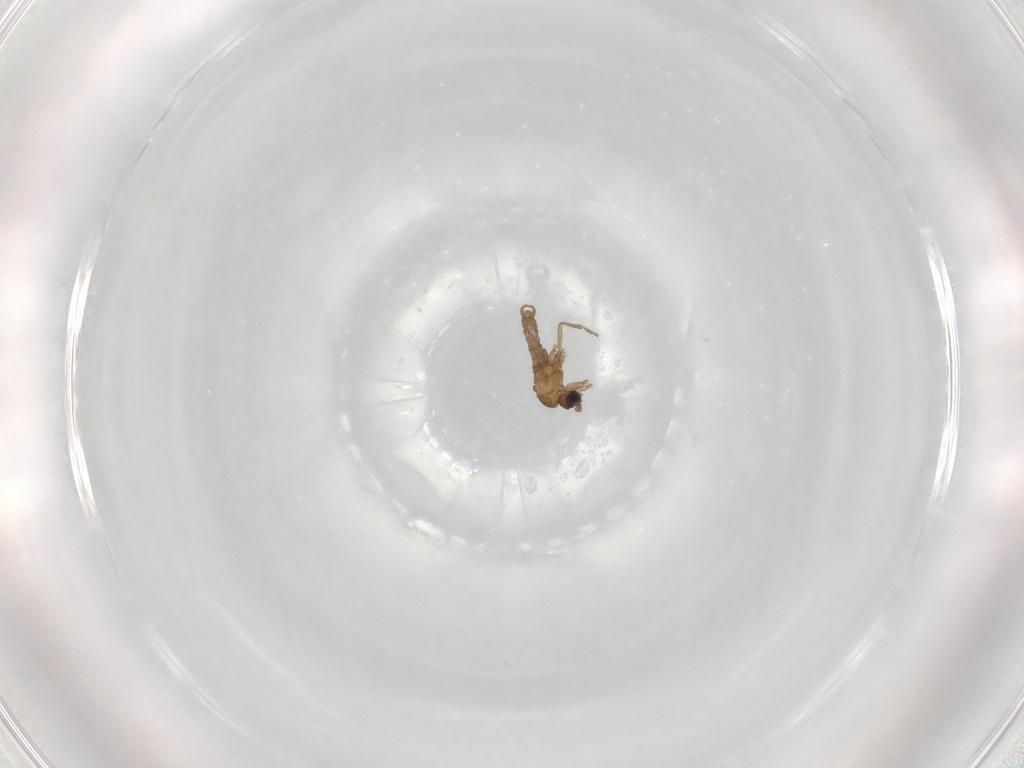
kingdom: Animalia
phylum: Arthropoda
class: Insecta
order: Diptera
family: Sciaridae
